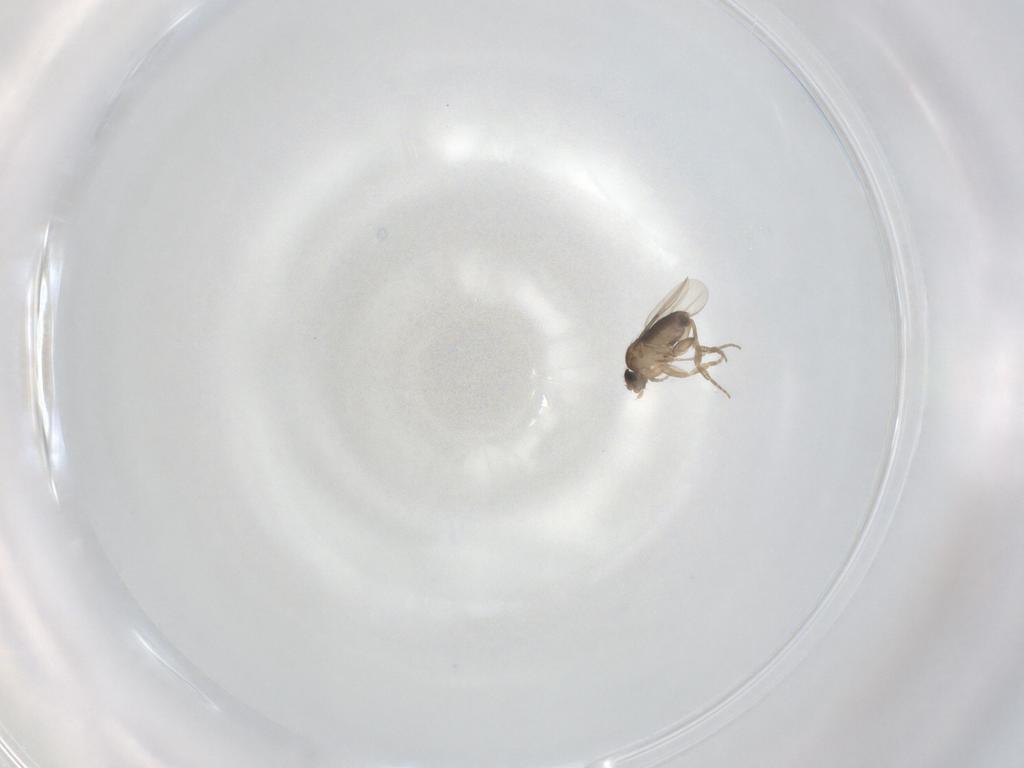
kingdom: Animalia
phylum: Arthropoda
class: Insecta
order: Diptera
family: Phoridae
